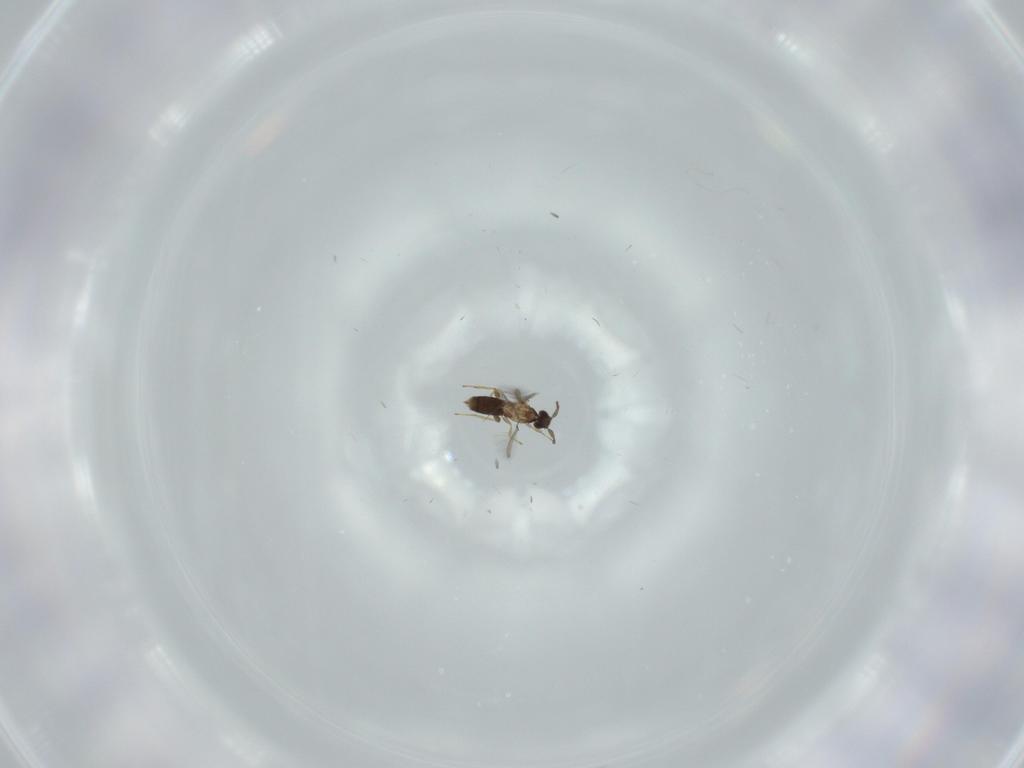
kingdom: Animalia
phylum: Arthropoda
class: Insecta
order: Hymenoptera
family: Mymaridae
